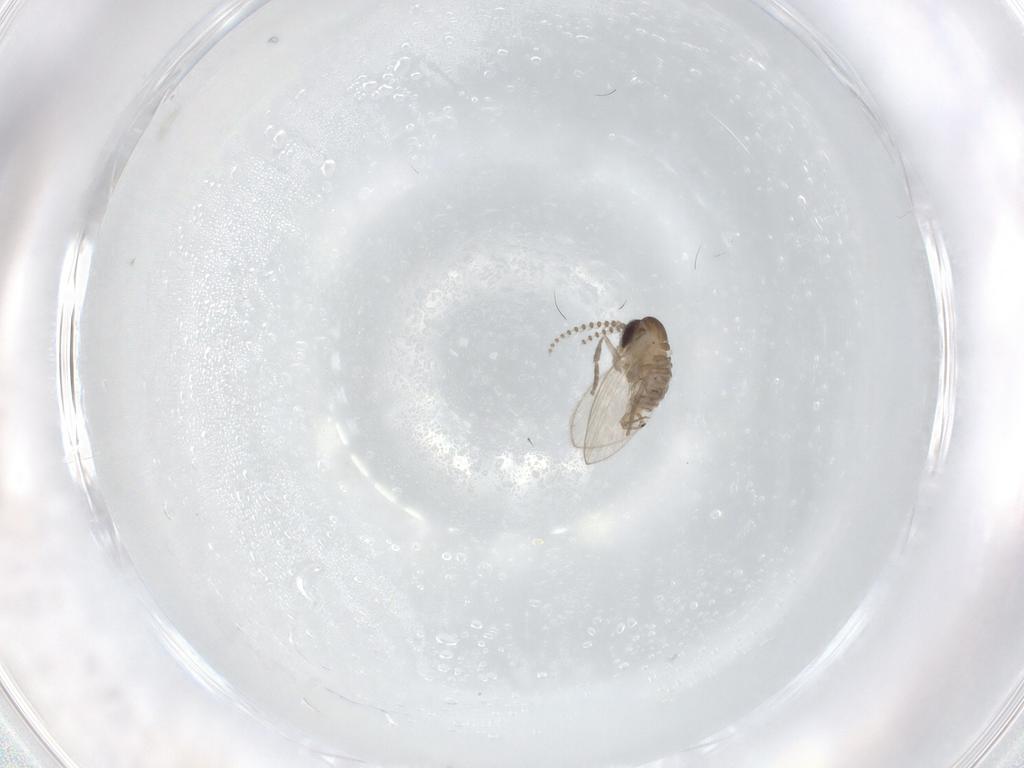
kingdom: Animalia
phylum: Arthropoda
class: Insecta
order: Diptera
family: Psychodidae
